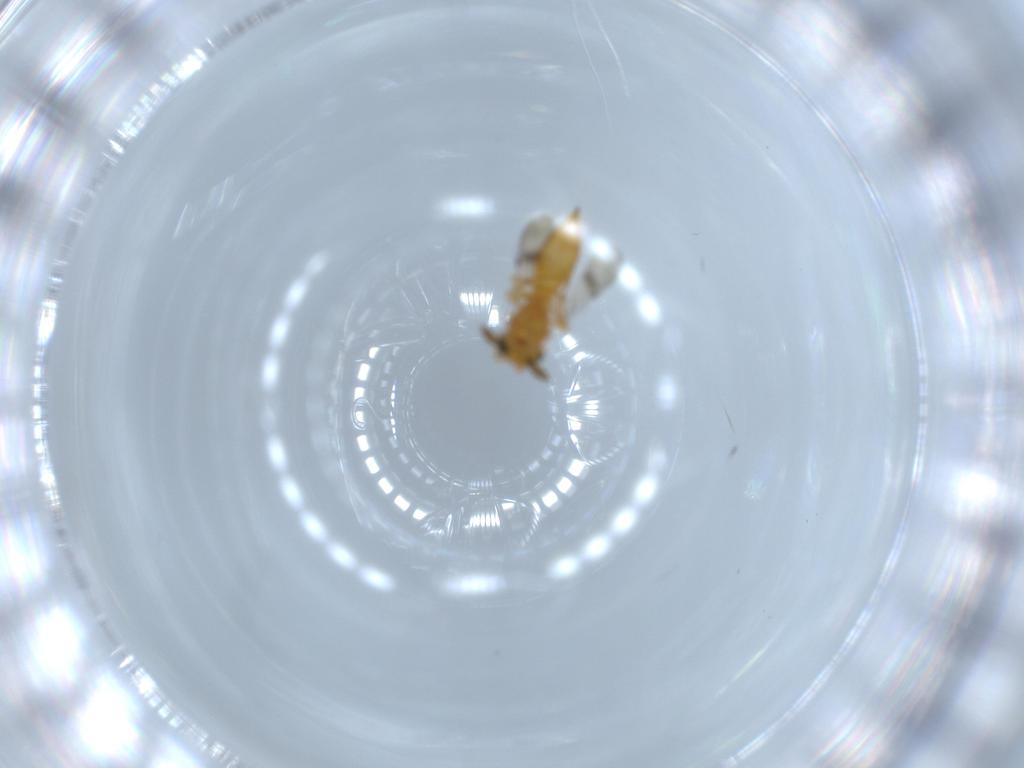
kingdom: Animalia
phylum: Arthropoda
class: Insecta
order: Hymenoptera
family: Scelionidae
